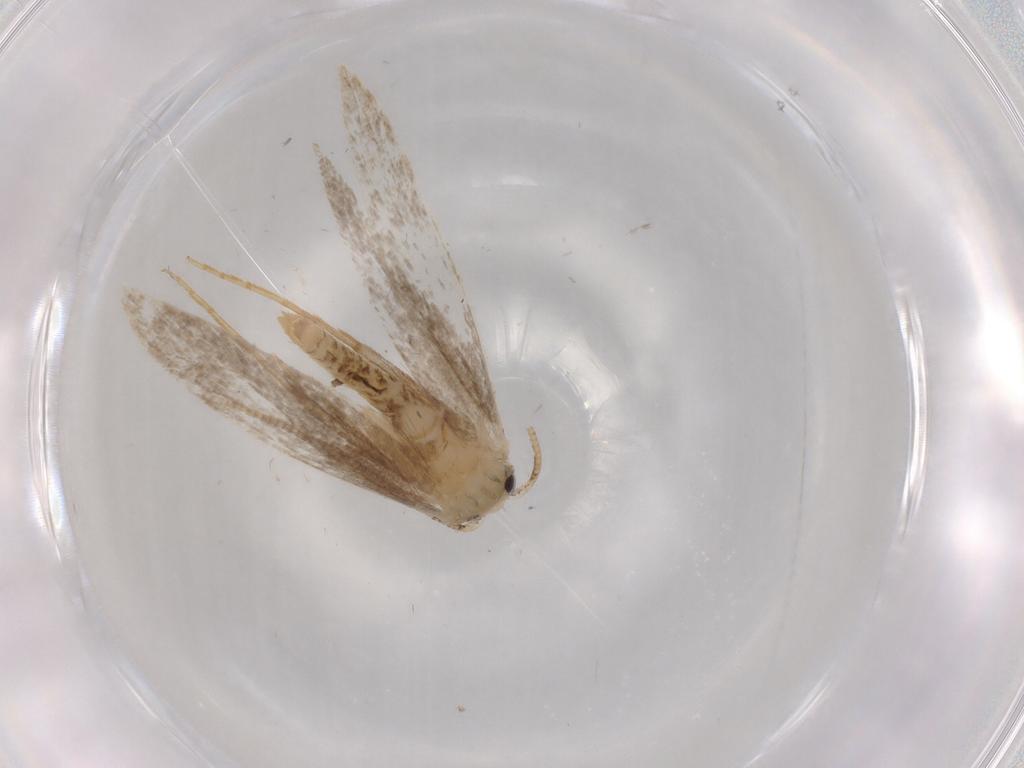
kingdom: Animalia
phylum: Arthropoda
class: Insecta
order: Lepidoptera
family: Tineidae
